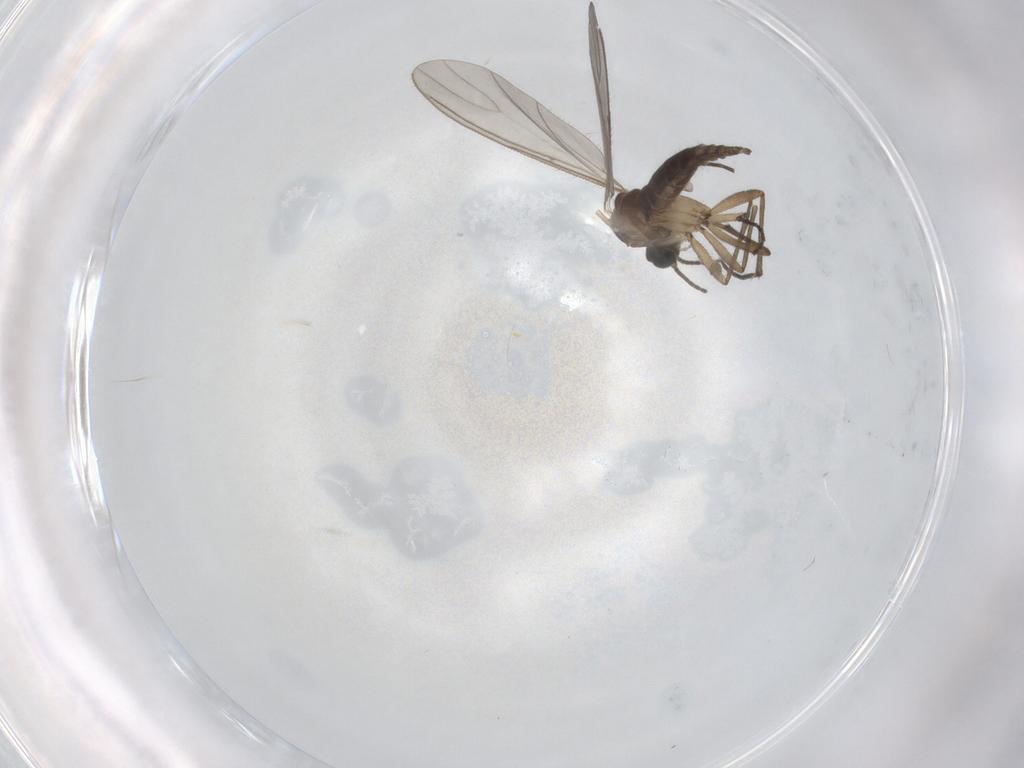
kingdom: Animalia
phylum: Arthropoda
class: Insecta
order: Diptera
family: Sciaridae
